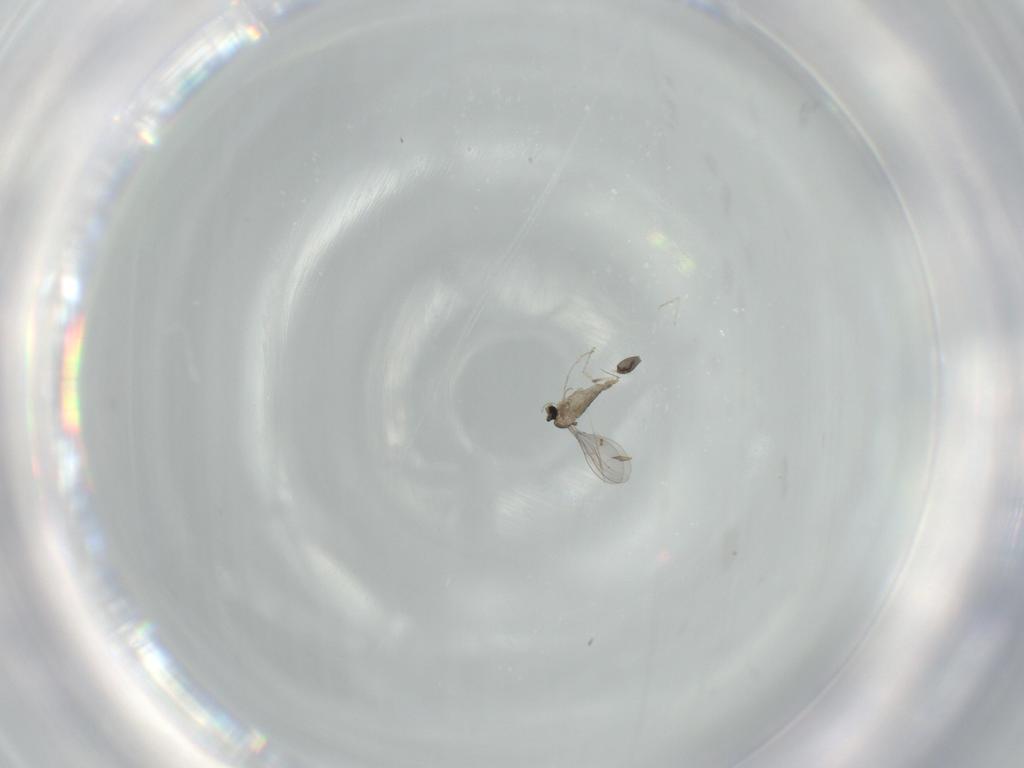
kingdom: Animalia
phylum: Arthropoda
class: Insecta
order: Diptera
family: Cecidomyiidae
